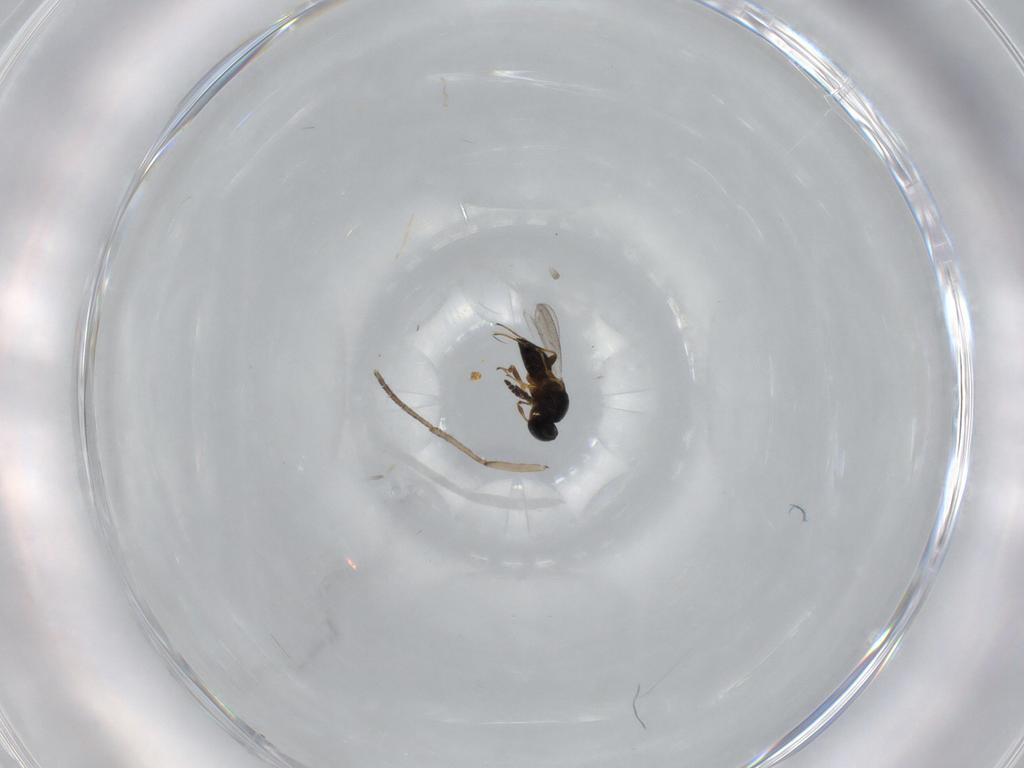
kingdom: Animalia
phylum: Arthropoda
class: Insecta
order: Hymenoptera
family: Platygastridae
